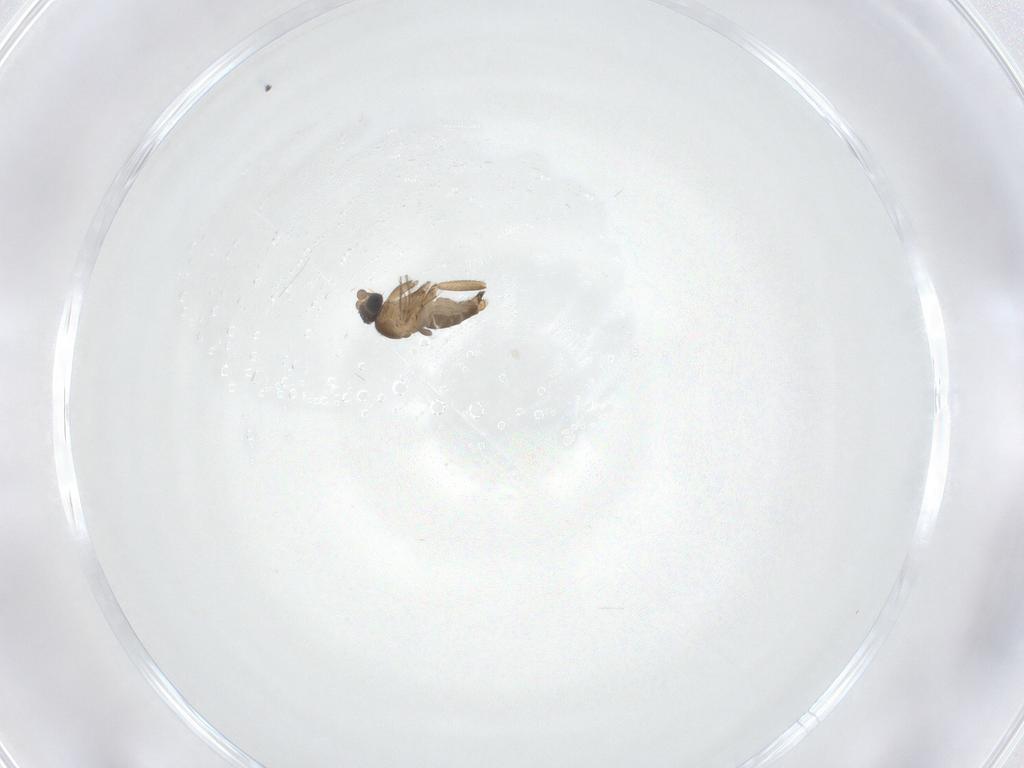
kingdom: Animalia
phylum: Arthropoda
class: Insecta
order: Diptera
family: Phoridae
